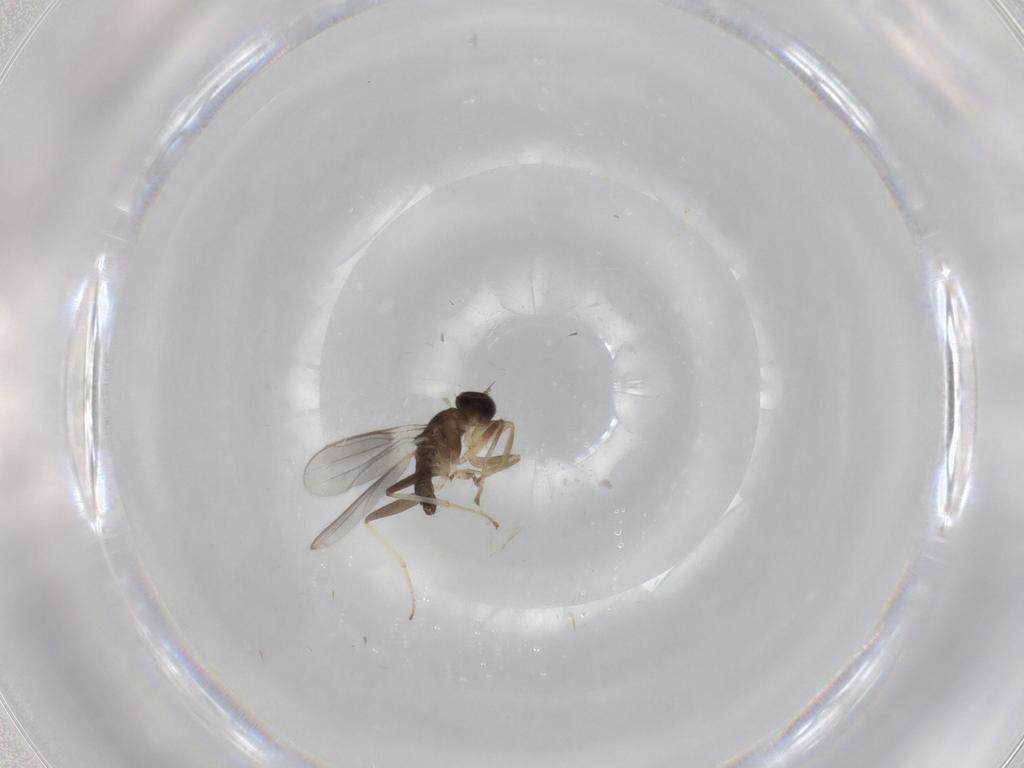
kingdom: Animalia
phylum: Arthropoda
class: Insecta
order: Diptera
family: Hybotidae
